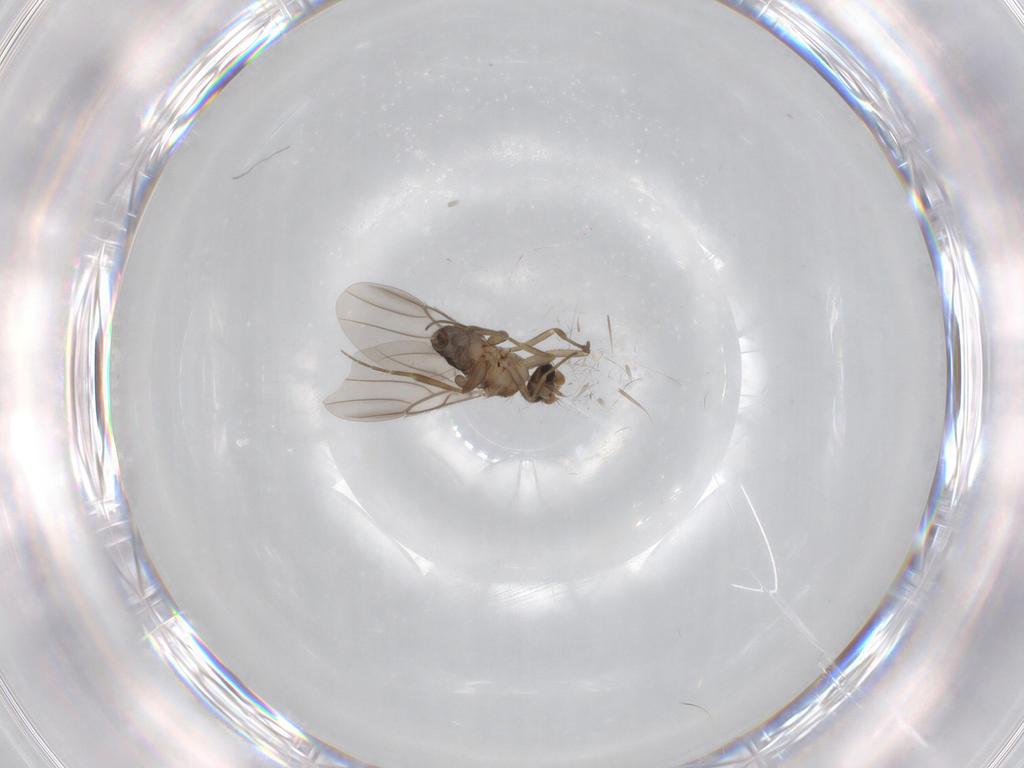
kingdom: Animalia
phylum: Arthropoda
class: Insecta
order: Diptera
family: Phoridae
